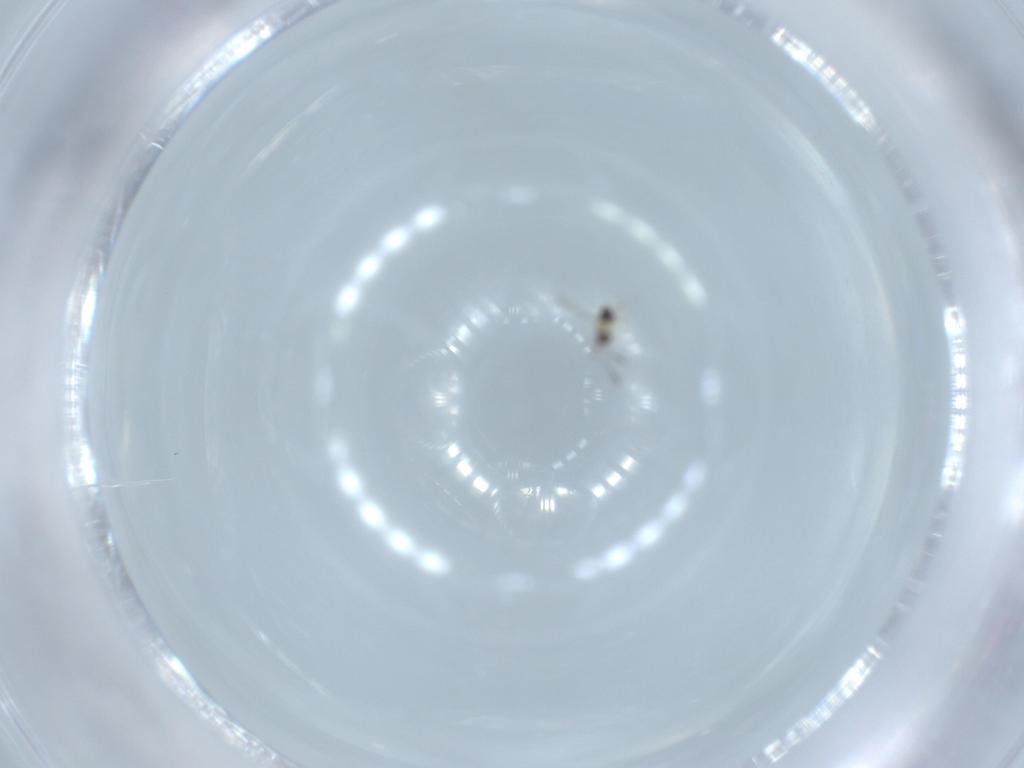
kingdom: Animalia
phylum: Arthropoda
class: Insecta
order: Hymenoptera
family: Mymaridae
